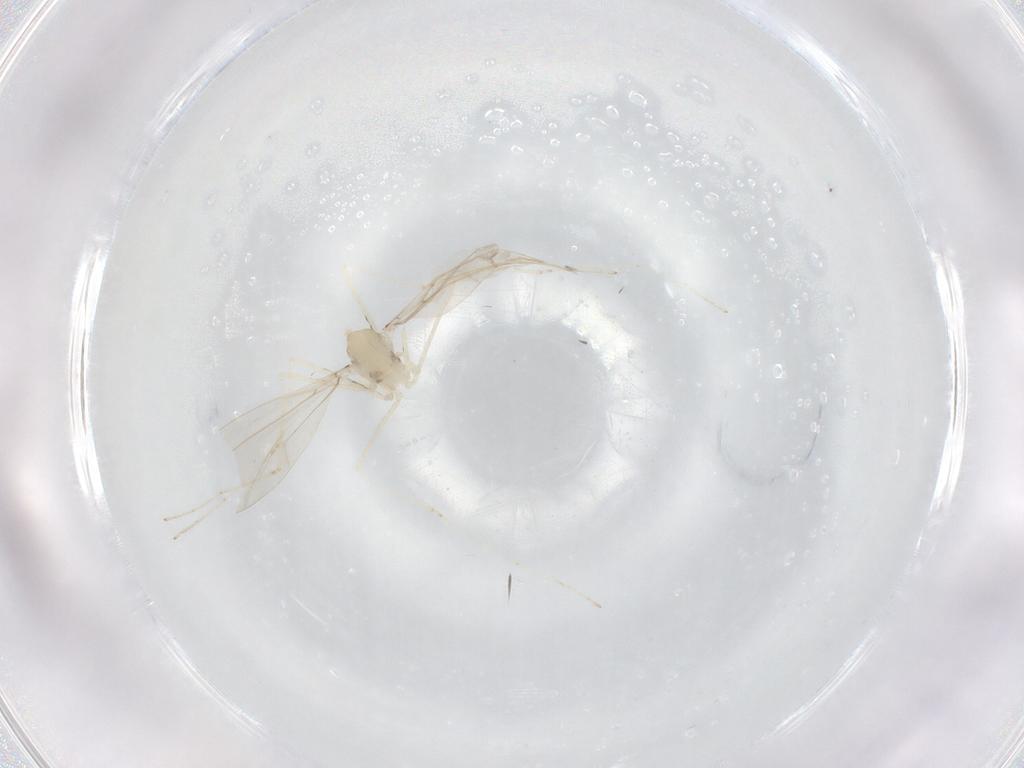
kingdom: Animalia
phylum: Arthropoda
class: Insecta
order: Diptera
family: Cecidomyiidae
